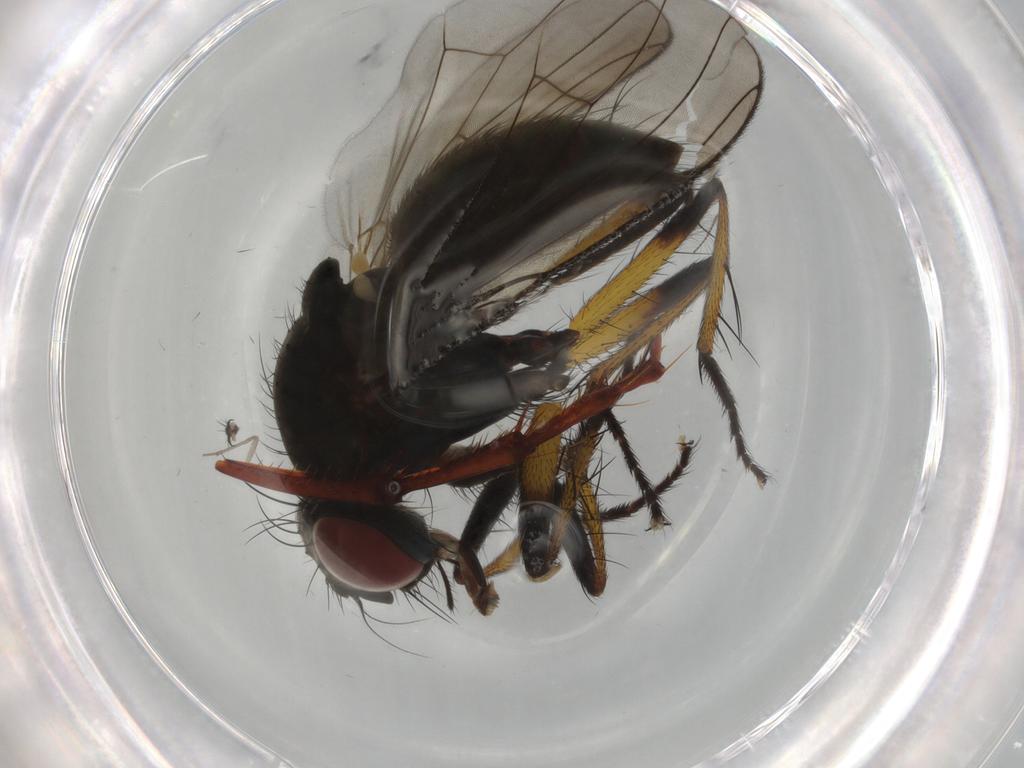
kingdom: Animalia
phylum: Arthropoda
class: Insecta
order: Diptera
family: Muscidae
